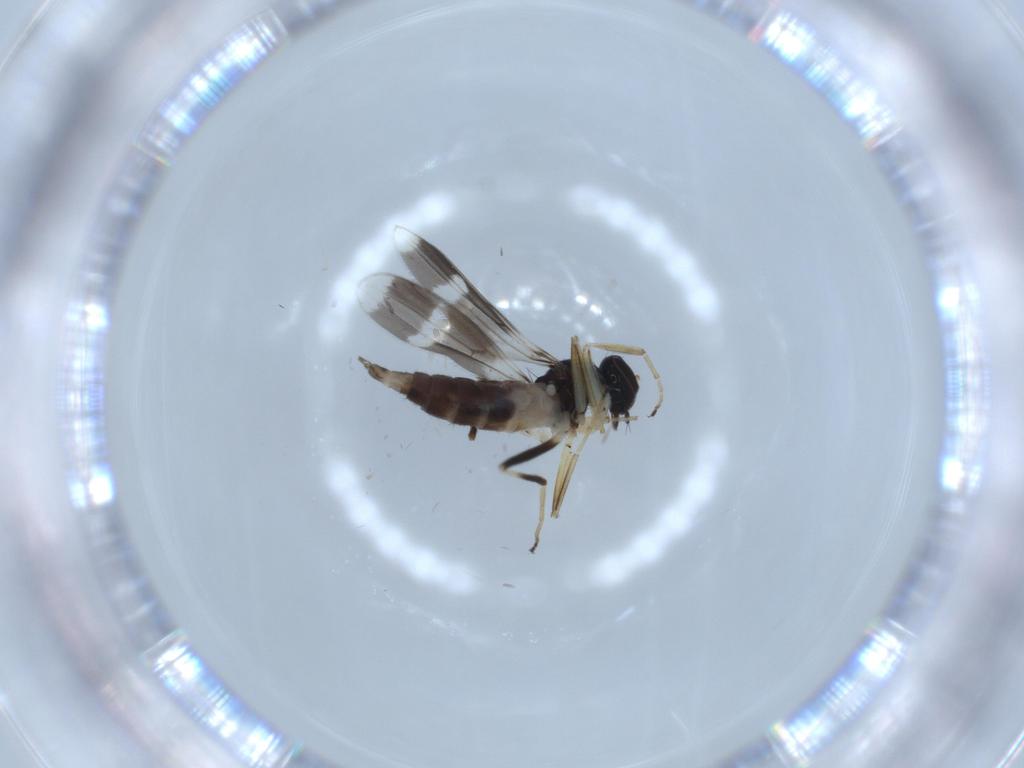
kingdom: Animalia
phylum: Arthropoda
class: Insecta
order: Diptera
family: Hybotidae
